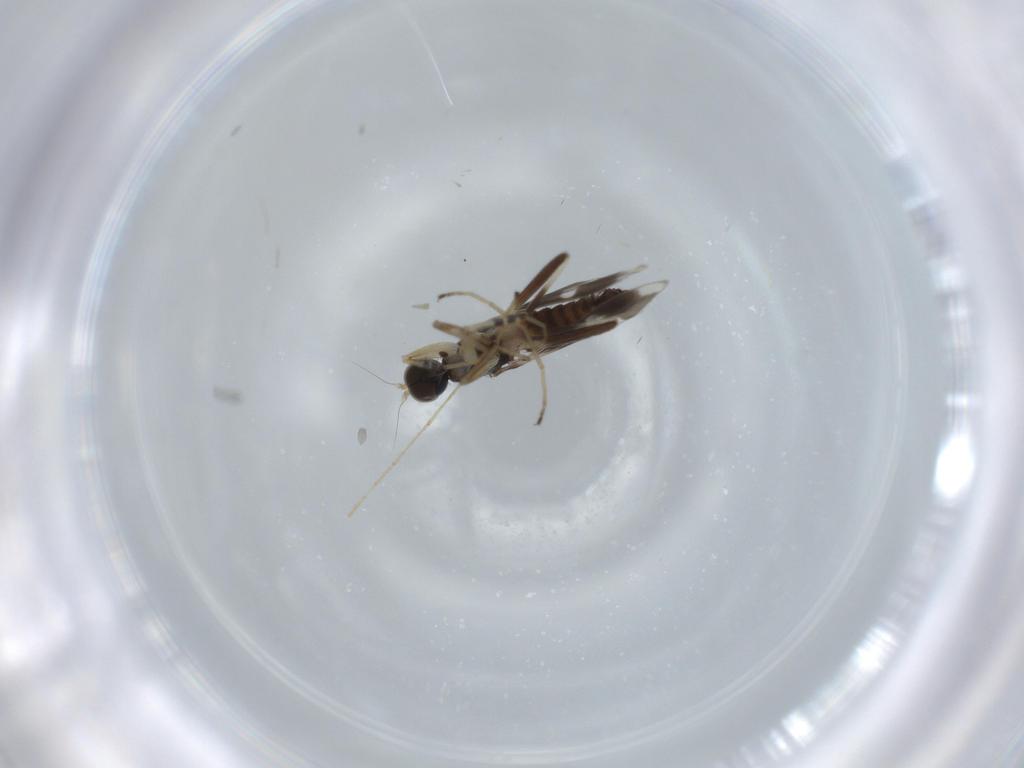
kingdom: Animalia
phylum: Arthropoda
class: Insecta
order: Diptera
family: Hybotidae
